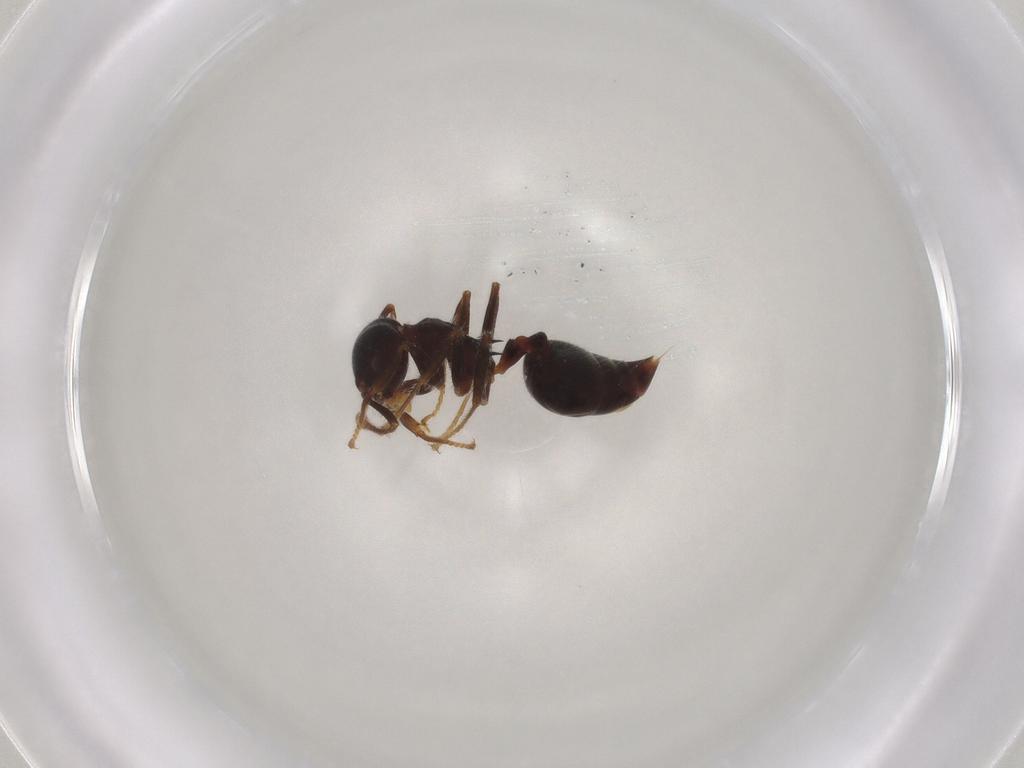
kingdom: Animalia
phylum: Arthropoda
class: Insecta
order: Hymenoptera
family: Formicidae
